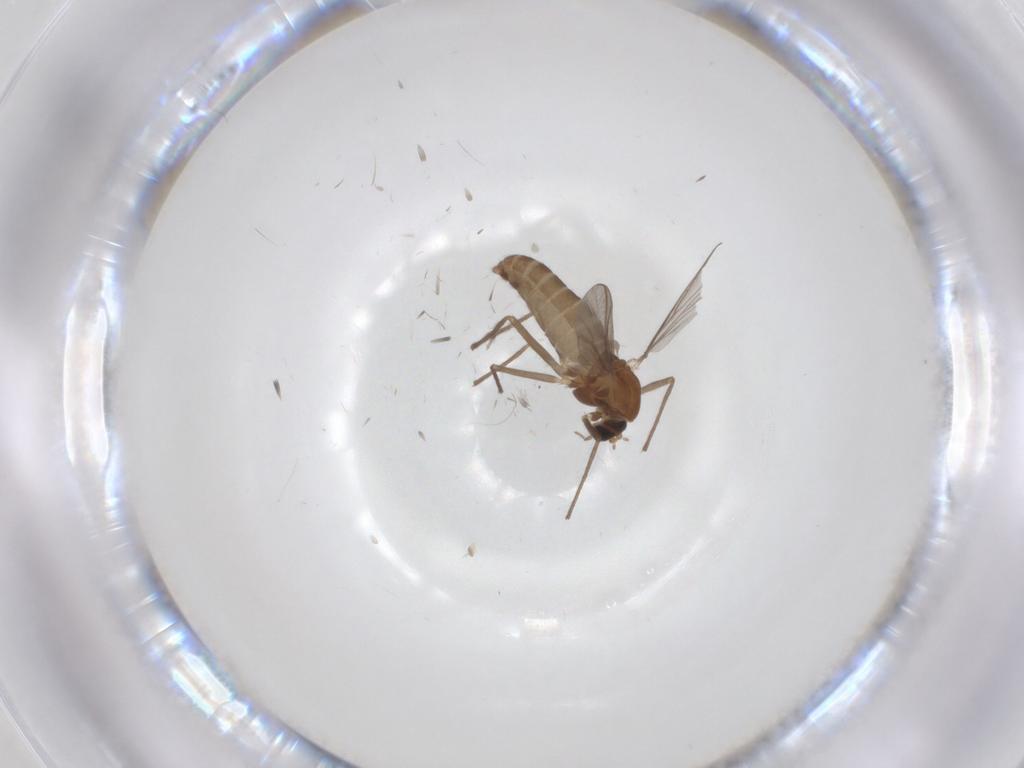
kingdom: Animalia
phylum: Arthropoda
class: Insecta
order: Diptera
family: Chironomidae
